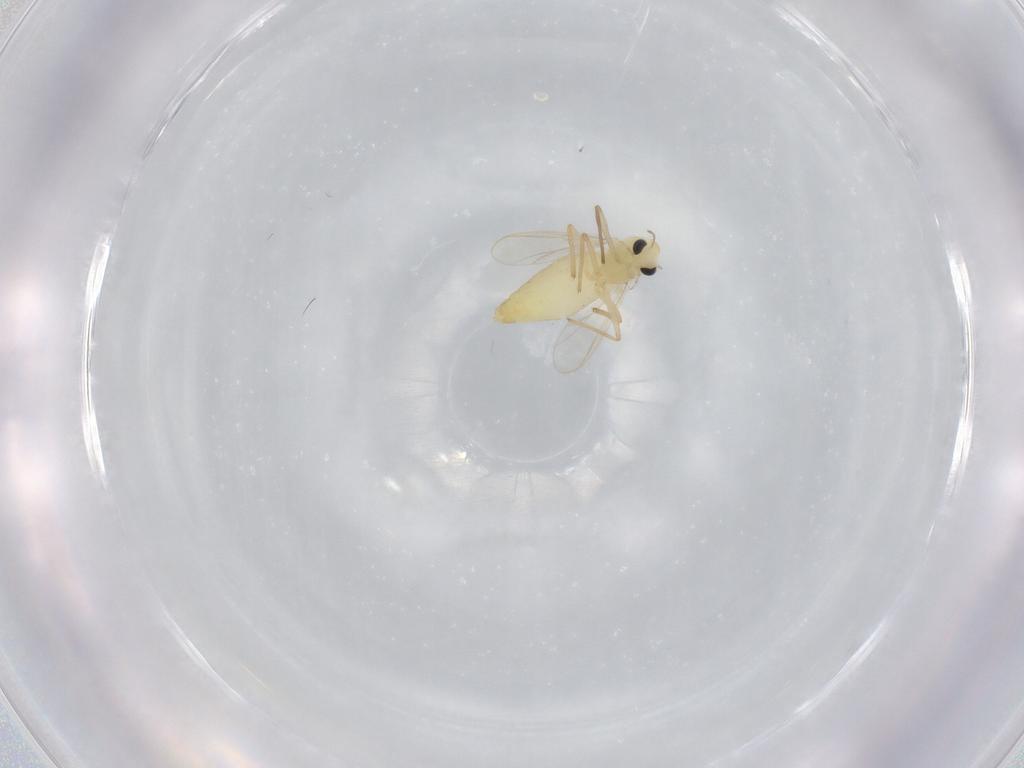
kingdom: Animalia
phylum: Arthropoda
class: Insecta
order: Diptera
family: Chironomidae
